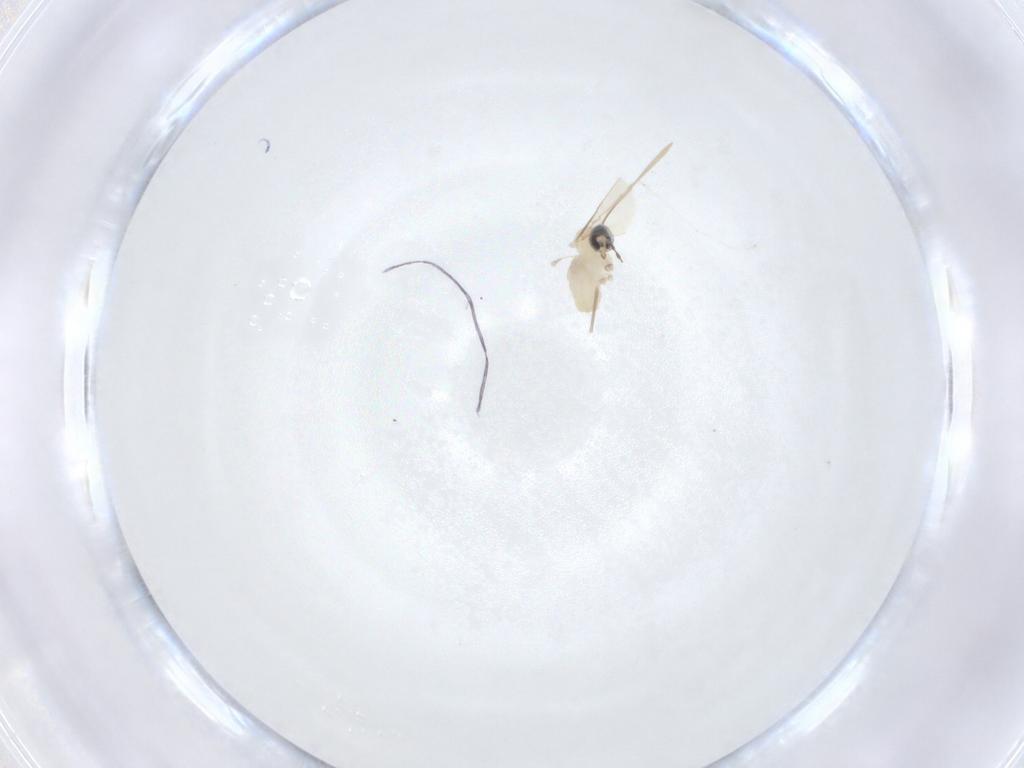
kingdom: Animalia
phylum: Arthropoda
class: Insecta
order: Diptera
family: Cecidomyiidae
